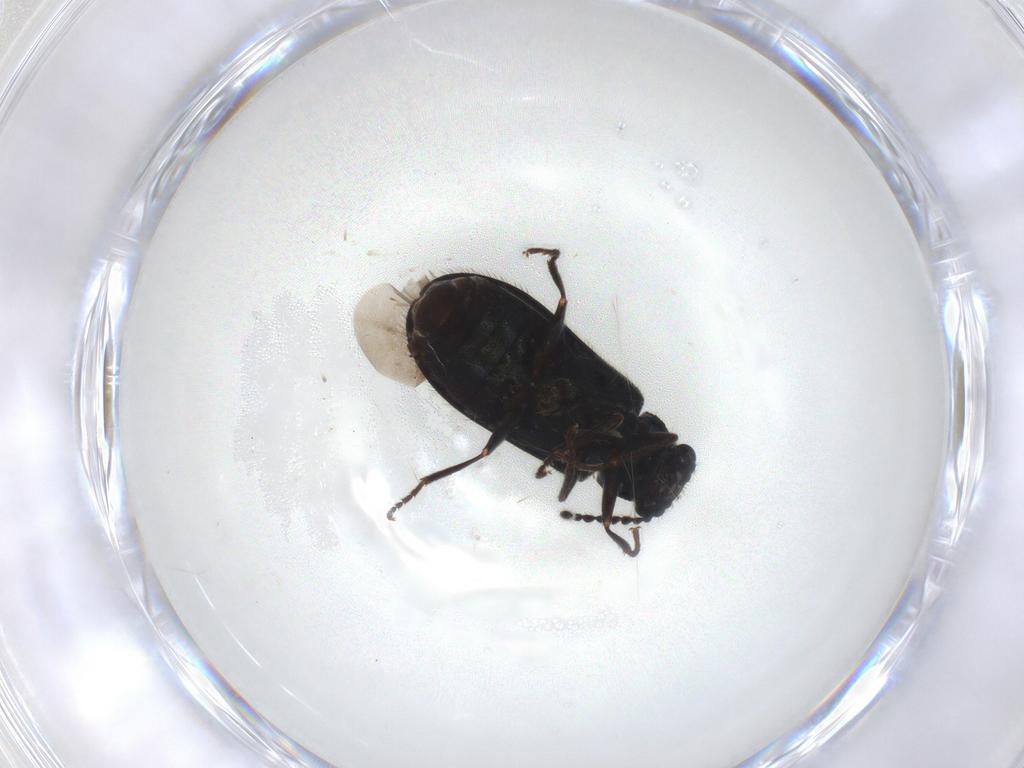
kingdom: Animalia
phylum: Arthropoda
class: Insecta
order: Coleoptera
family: Melyridae
